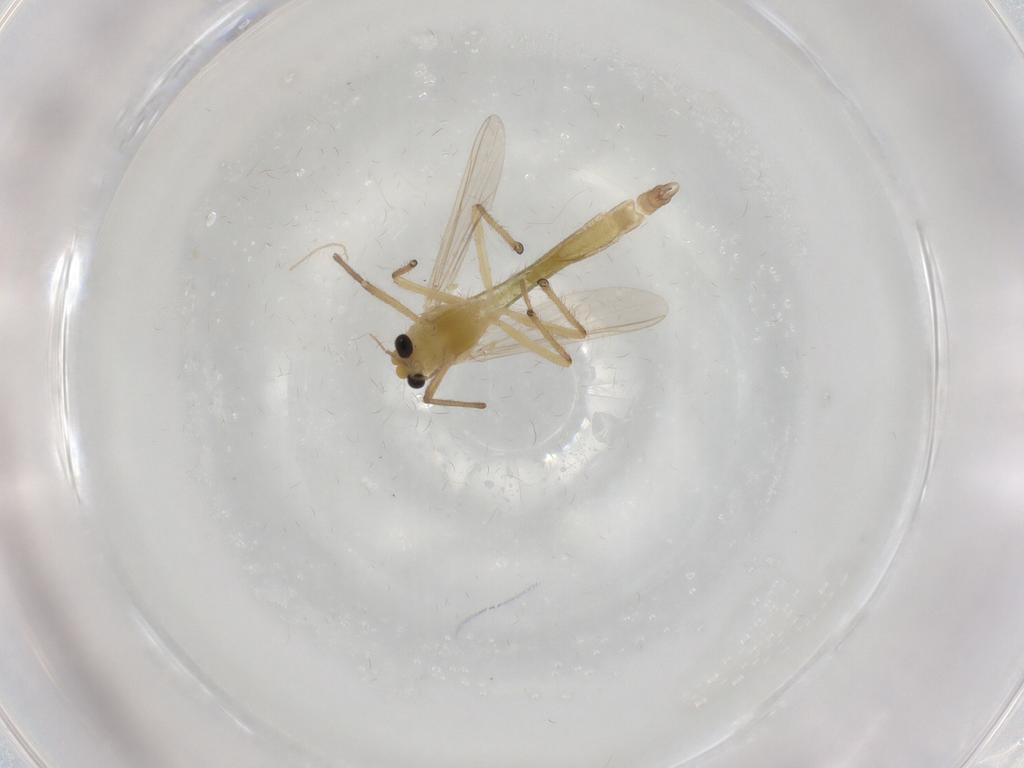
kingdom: Animalia
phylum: Arthropoda
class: Insecta
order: Diptera
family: Chironomidae
